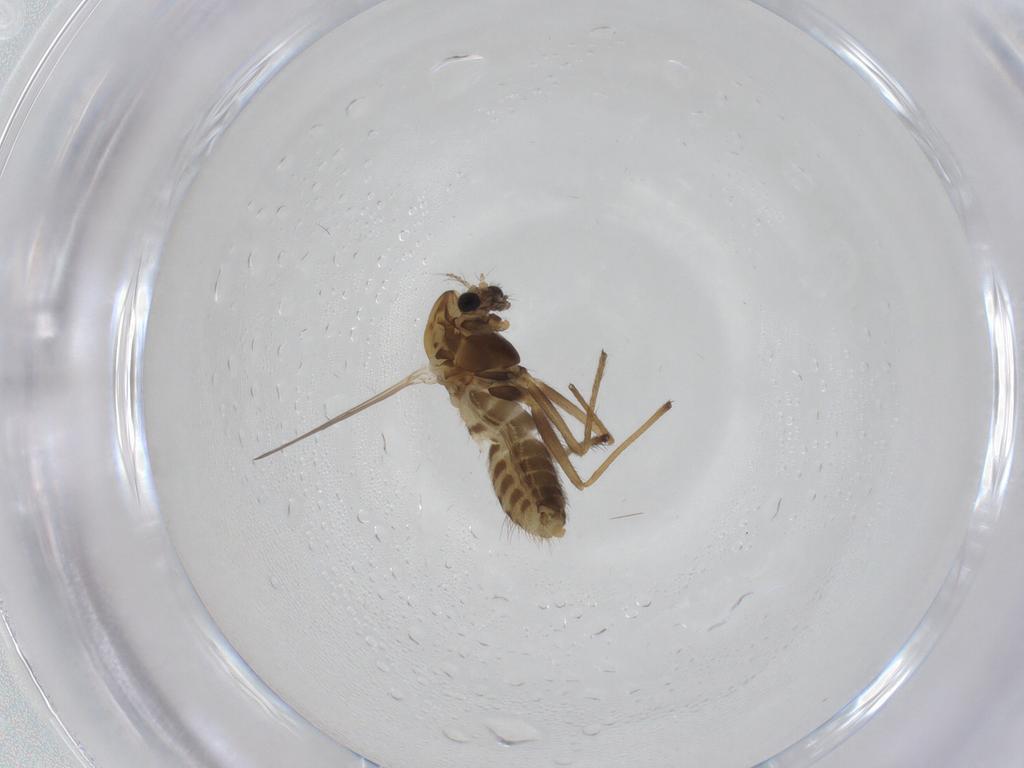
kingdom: Animalia
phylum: Arthropoda
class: Insecta
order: Diptera
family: Chironomidae
